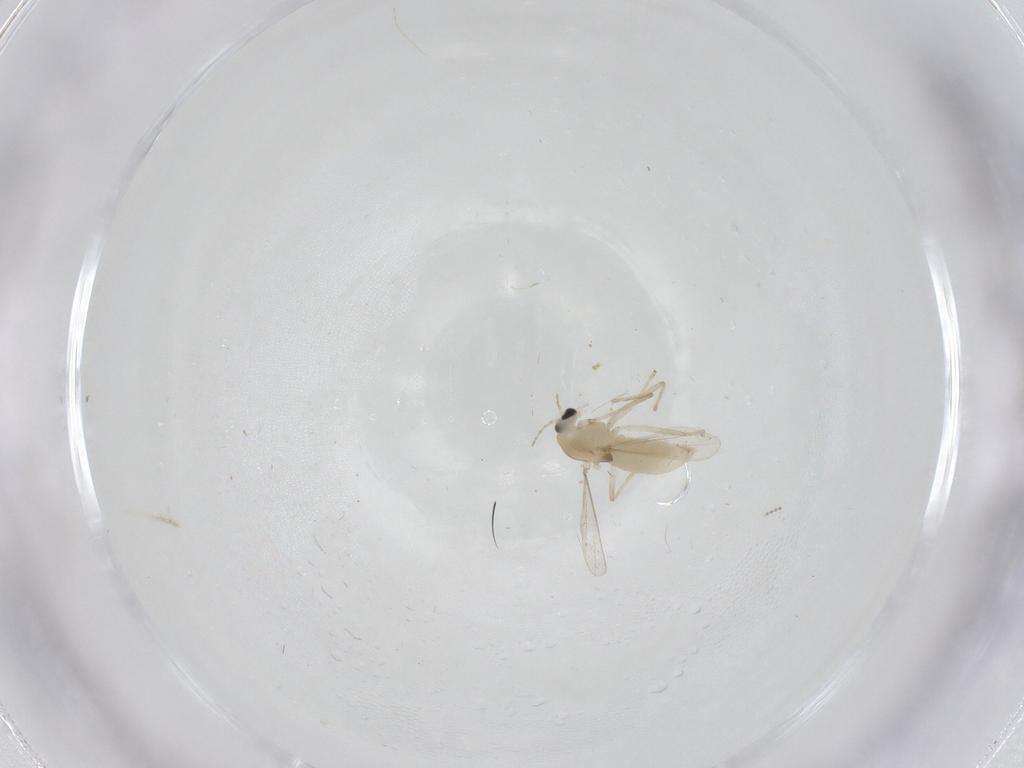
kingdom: Animalia
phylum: Arthropoda
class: Insecta
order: Diptera
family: Chironomidae
